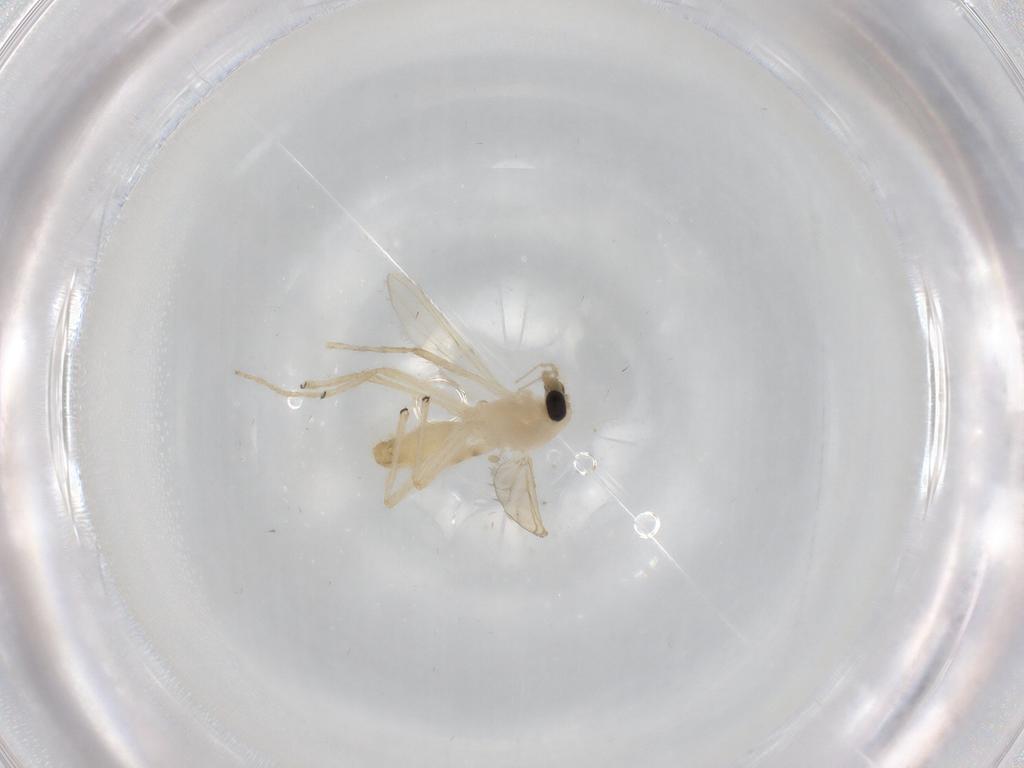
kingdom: Animalia
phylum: Arthropoda
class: Insecta
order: Diptera
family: Chironomidae
